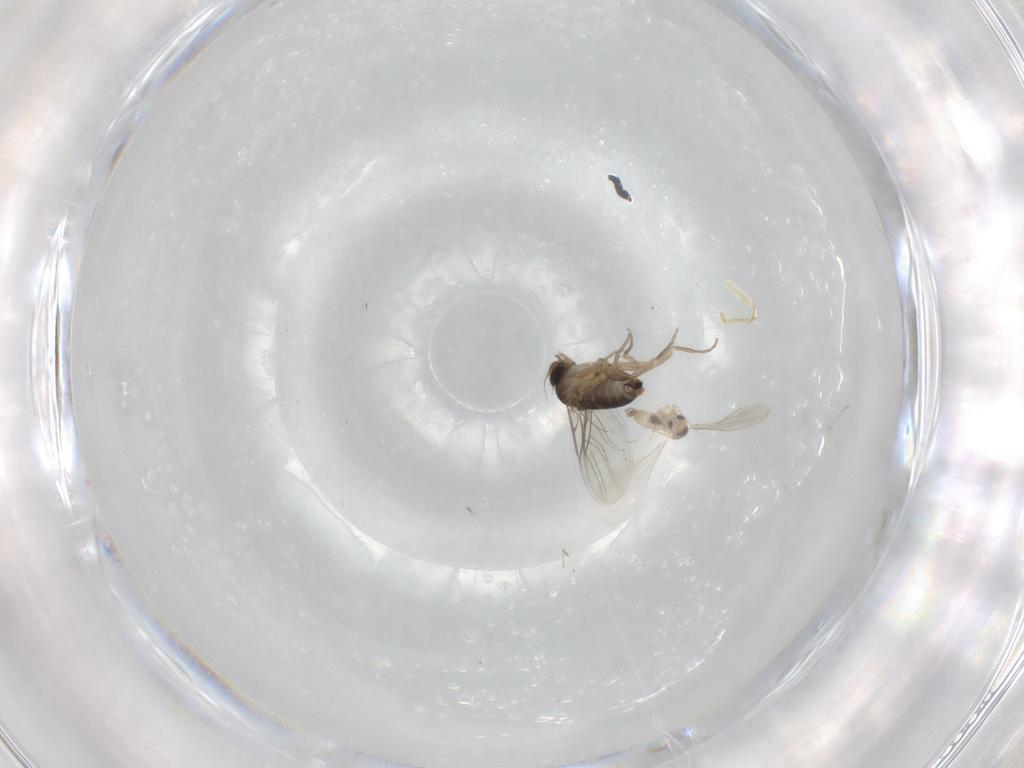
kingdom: Animalia
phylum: Arthropoda
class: Insecta
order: Diptera
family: Cecidomyiidae
